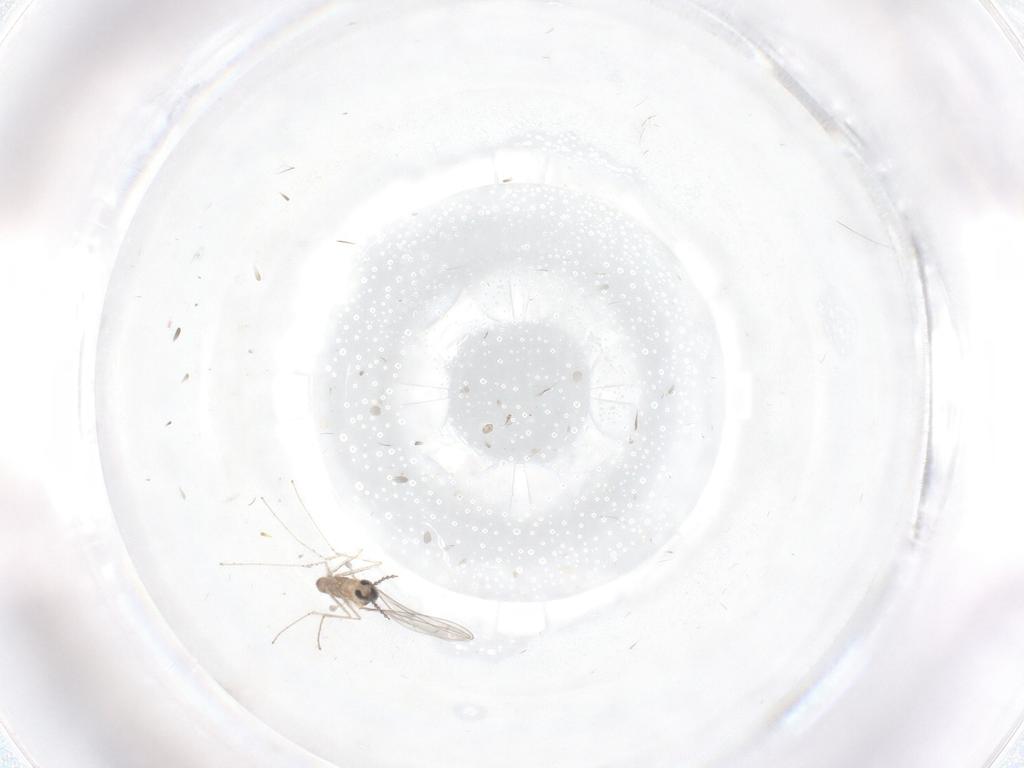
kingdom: Animalia
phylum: Arthropoda
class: Insecta
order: Diptera
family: Cecidomyiidae
